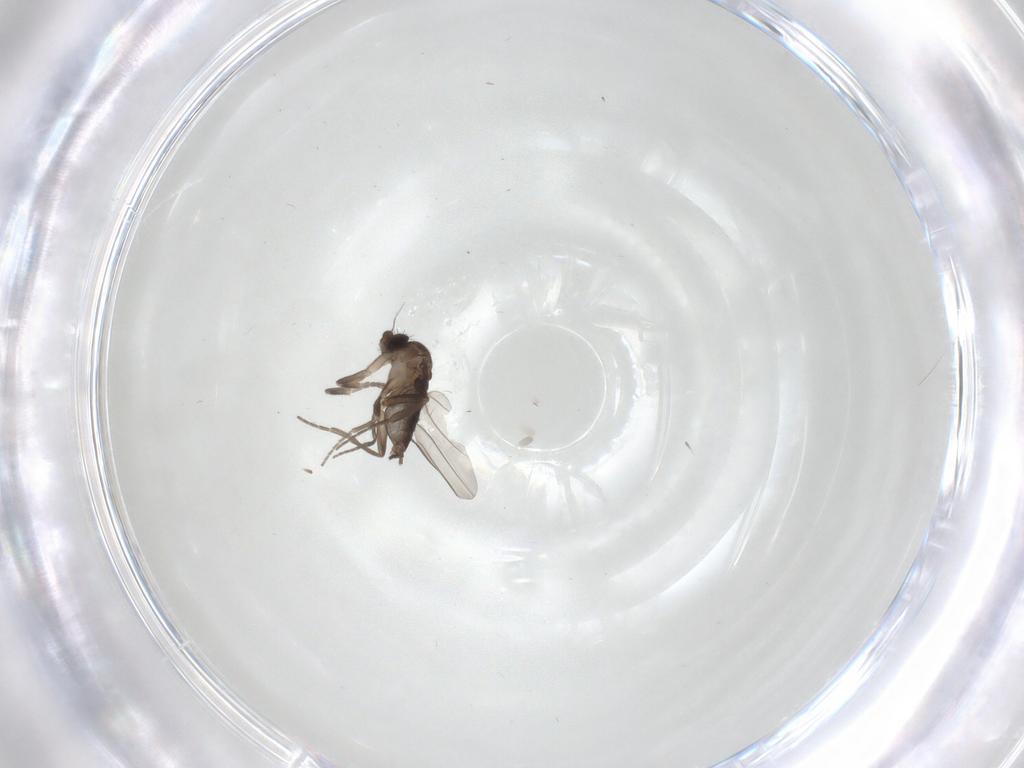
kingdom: Animalia
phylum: Arthropoda
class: Insecta
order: Diptera
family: Phoridae
